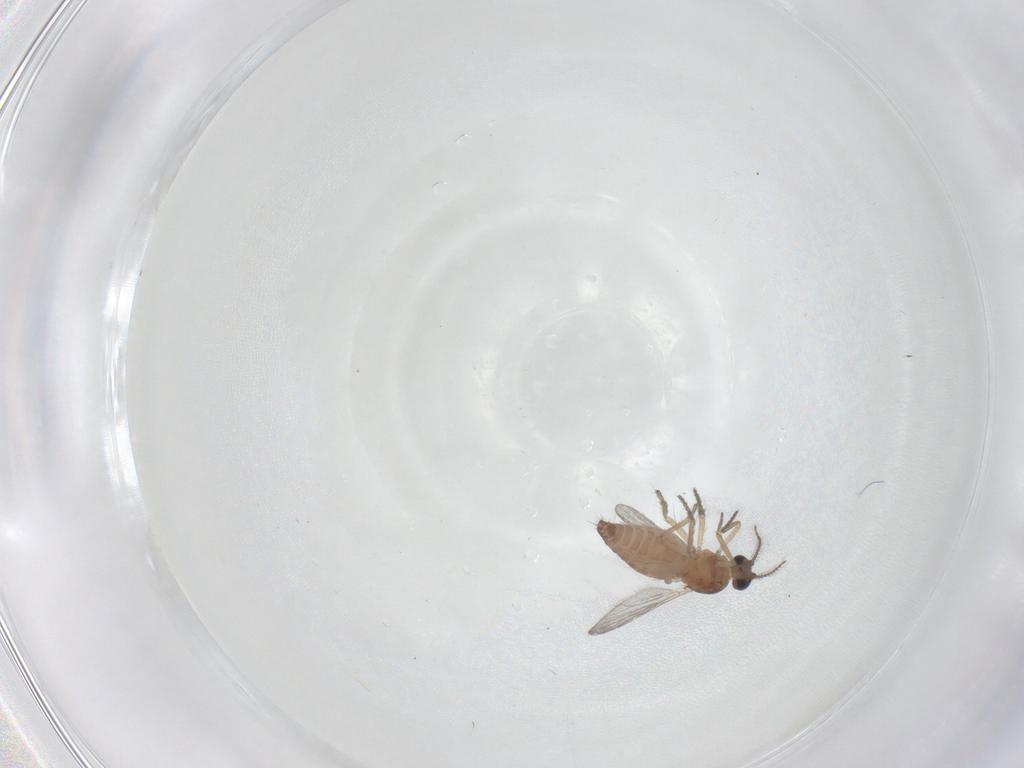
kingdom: Animalia
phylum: Arthropoda
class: Insecta
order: Diptera
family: Ceratopogonidae
